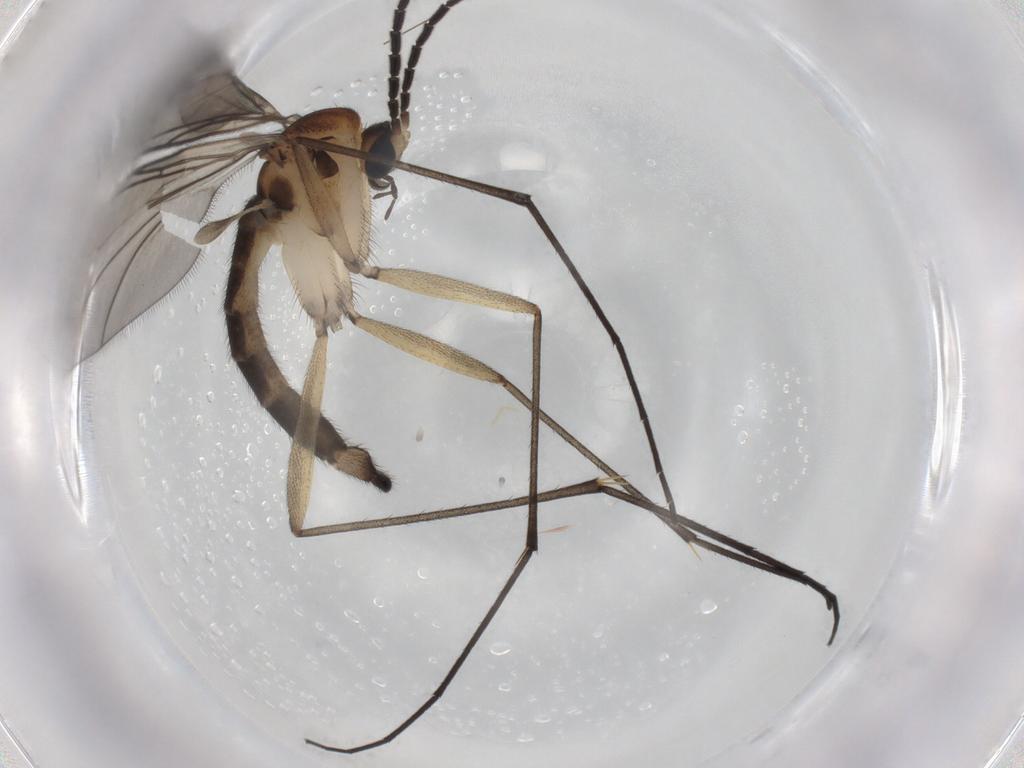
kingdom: Animalia
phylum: Arthropoda
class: Insecta
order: Diptera
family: Sciaridae
